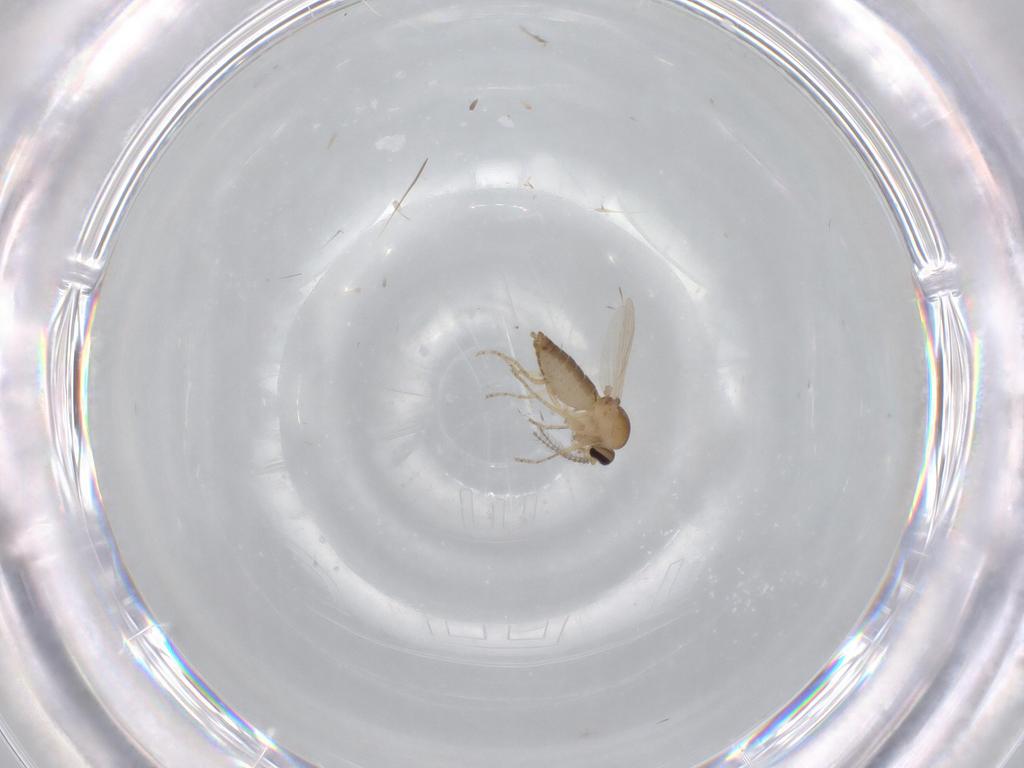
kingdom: Animalia
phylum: Arthropoda
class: Insecta
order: Diptera
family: Ceratopogonidae
